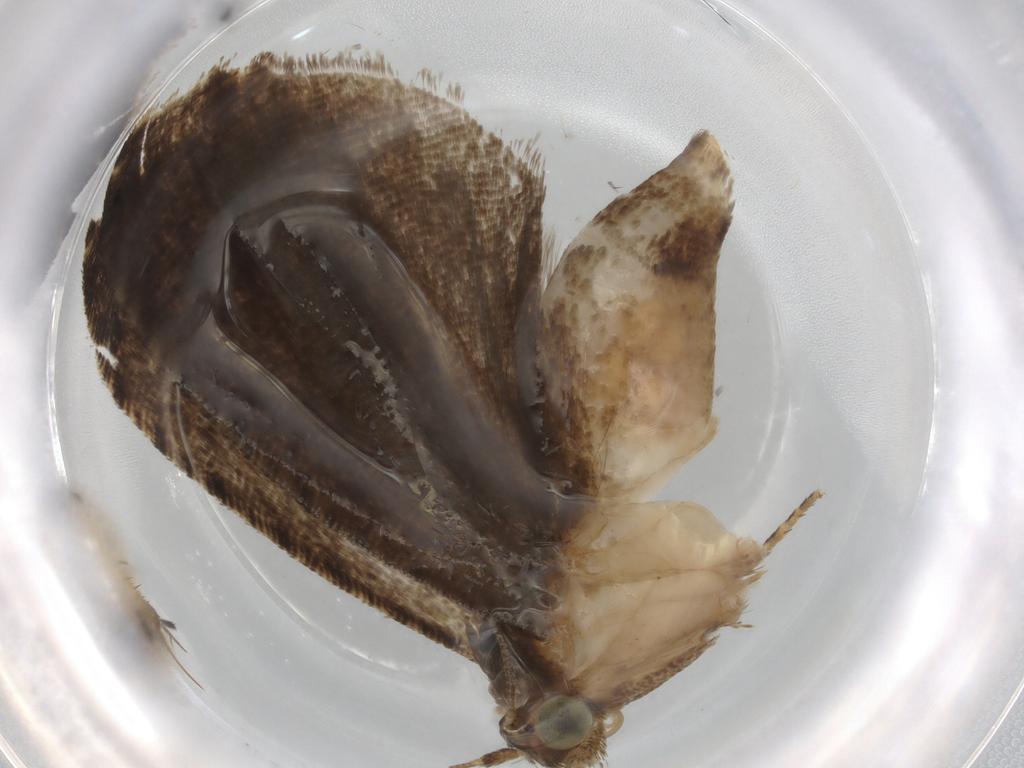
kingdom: Animalia
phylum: Arthropoda
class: Insecta
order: Lepidoptera
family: Tortricidae
